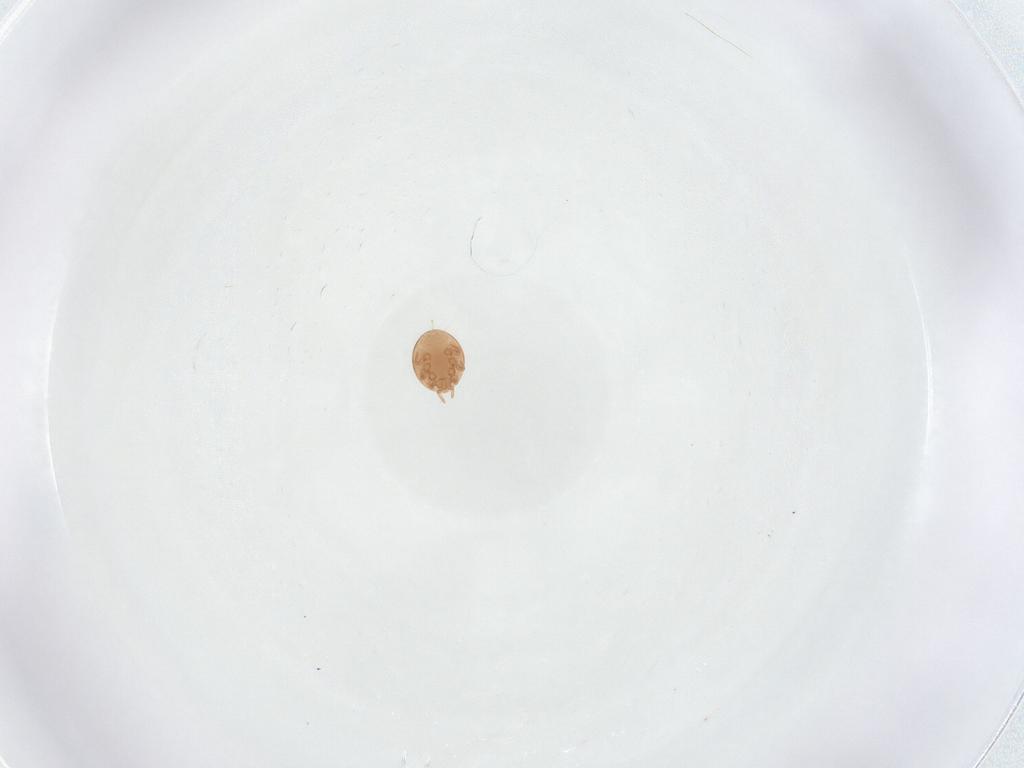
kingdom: Animalia
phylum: Arthropoda
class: Arachnida
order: Mesostigmata
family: Trematuridae
